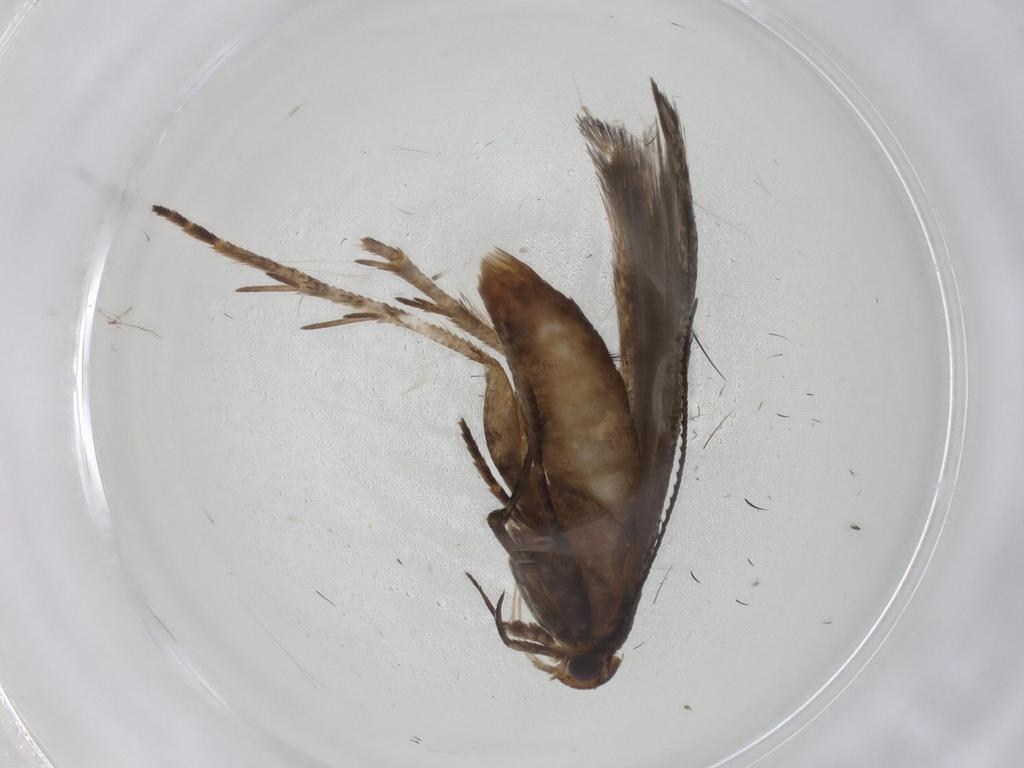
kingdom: Animalia
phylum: Arthropoda
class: Insecta
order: Lepidoptera
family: Gelechiidae
